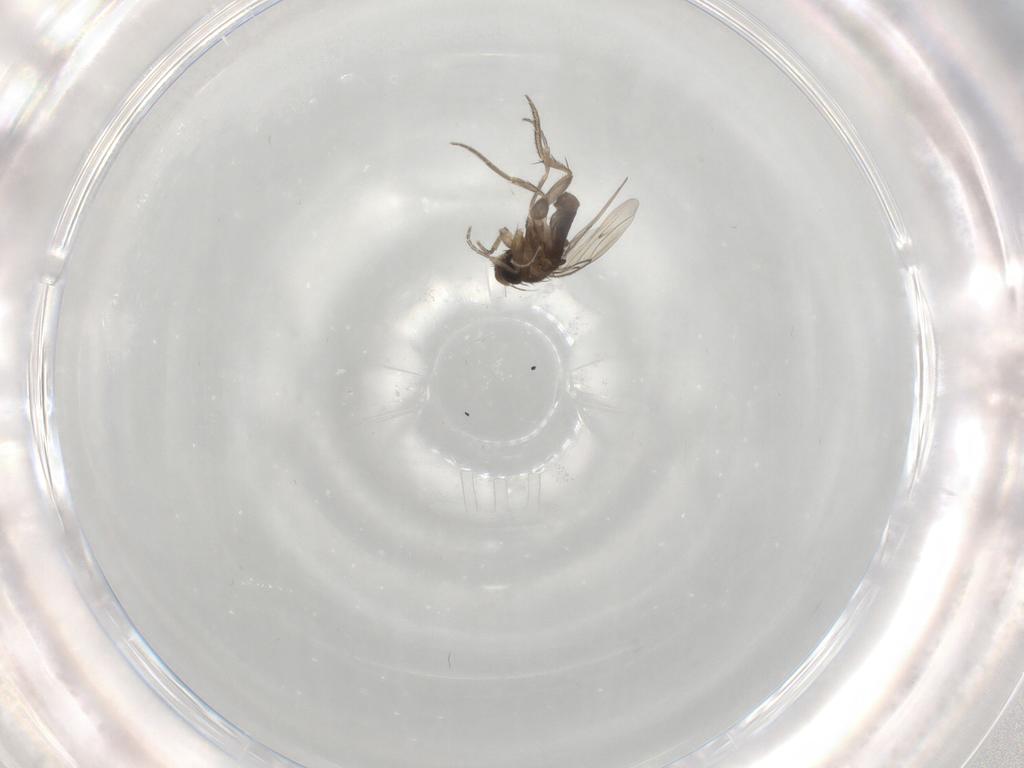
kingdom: Animalia
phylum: Arthropoda
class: Insecta
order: Diptera
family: Phoridae
